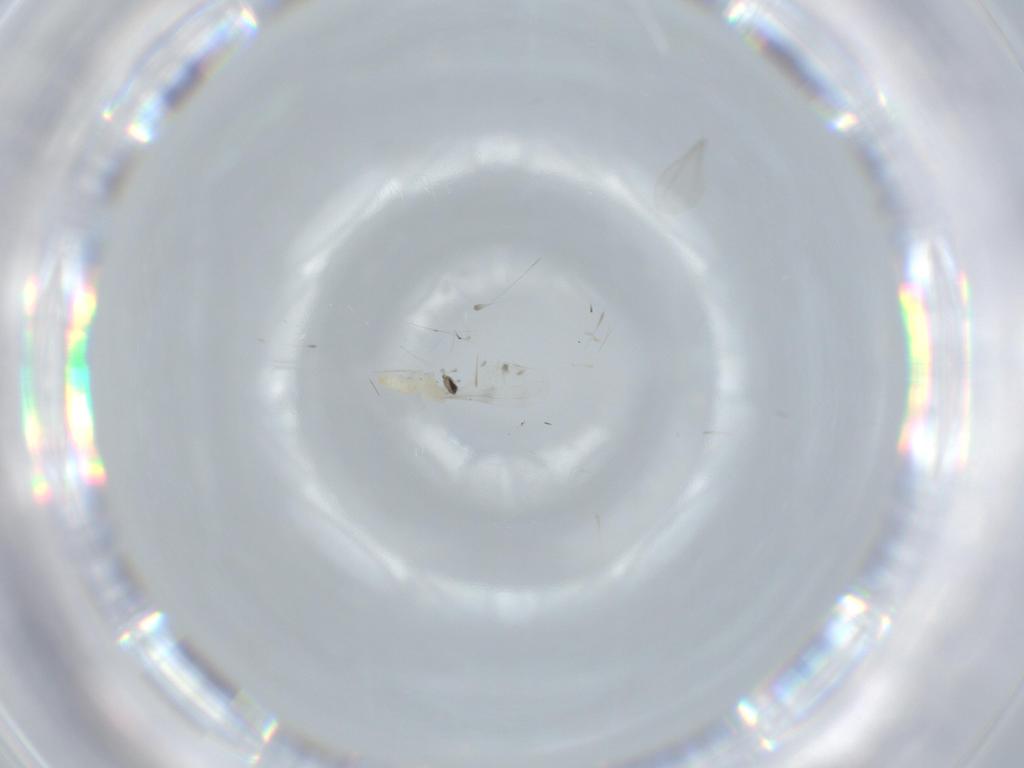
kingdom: Animalia
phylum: Arthropoda
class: Insecta
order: Diptera
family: Cecidomyiidae
